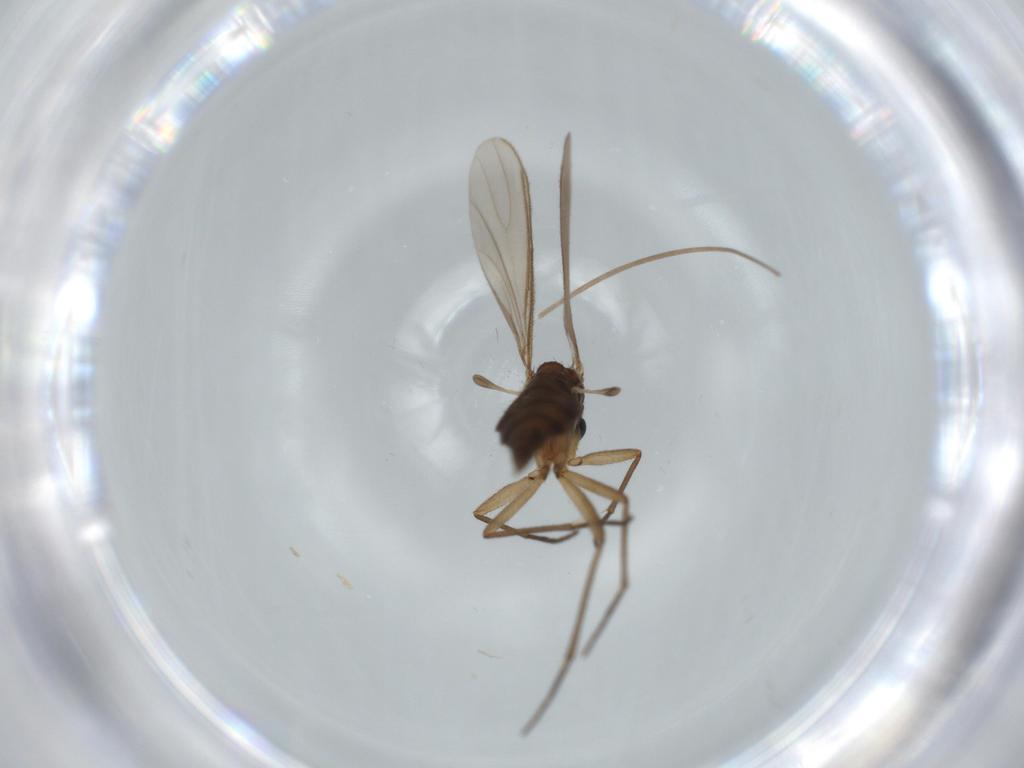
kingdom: Animalia
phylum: Arthropoda
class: Insecta
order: Diptera
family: Sciaridae
